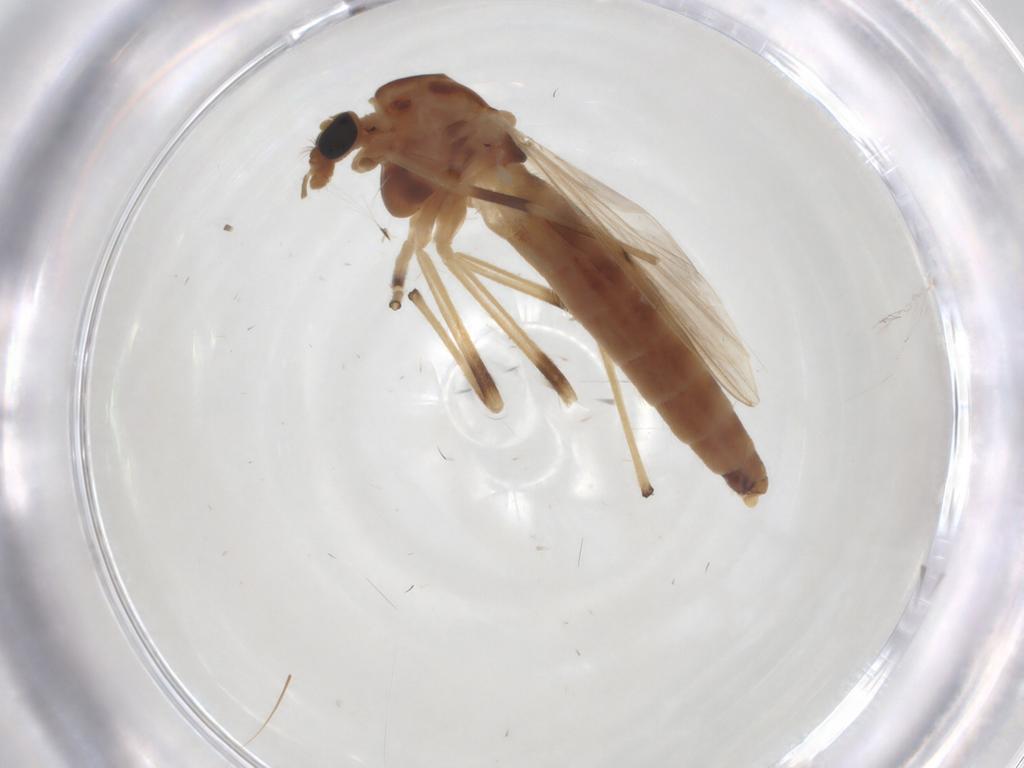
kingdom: Animalia
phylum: Arthropoda
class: Insecta
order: Diptera
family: Chironomidae
